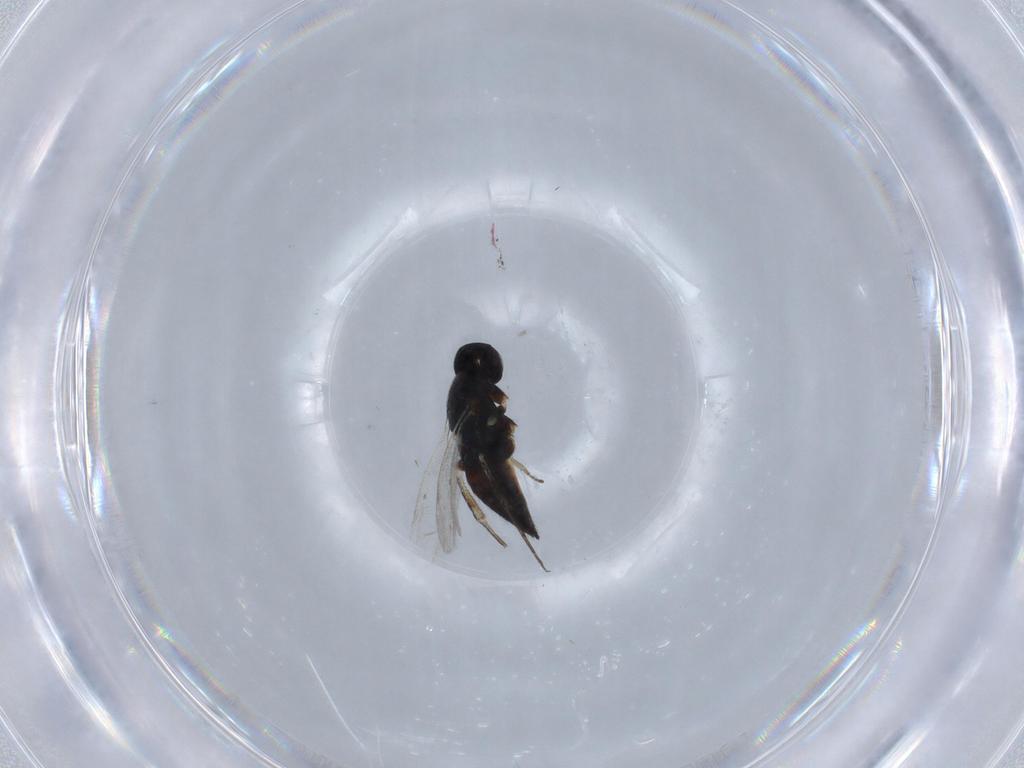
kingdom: Animalia
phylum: Arthropoda
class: Insecta
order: Hymenoptera
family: Eulophidae
